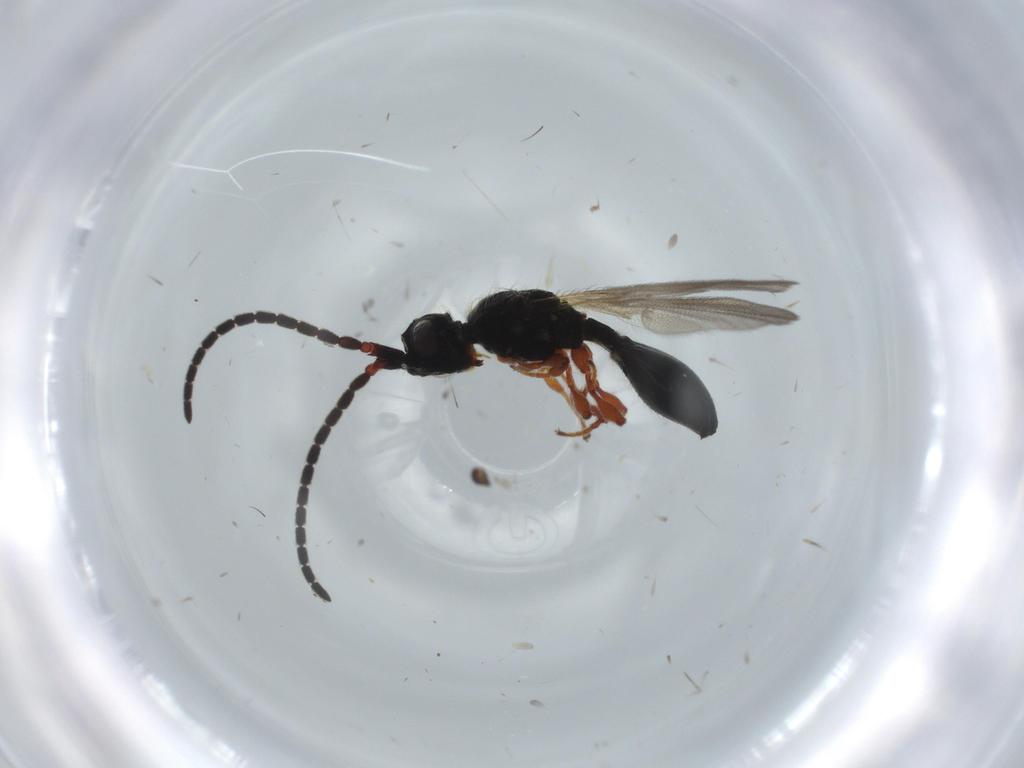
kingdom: Animalia
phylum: Arthropoda
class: Insecta
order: Hymenoptera
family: Diapriidae
